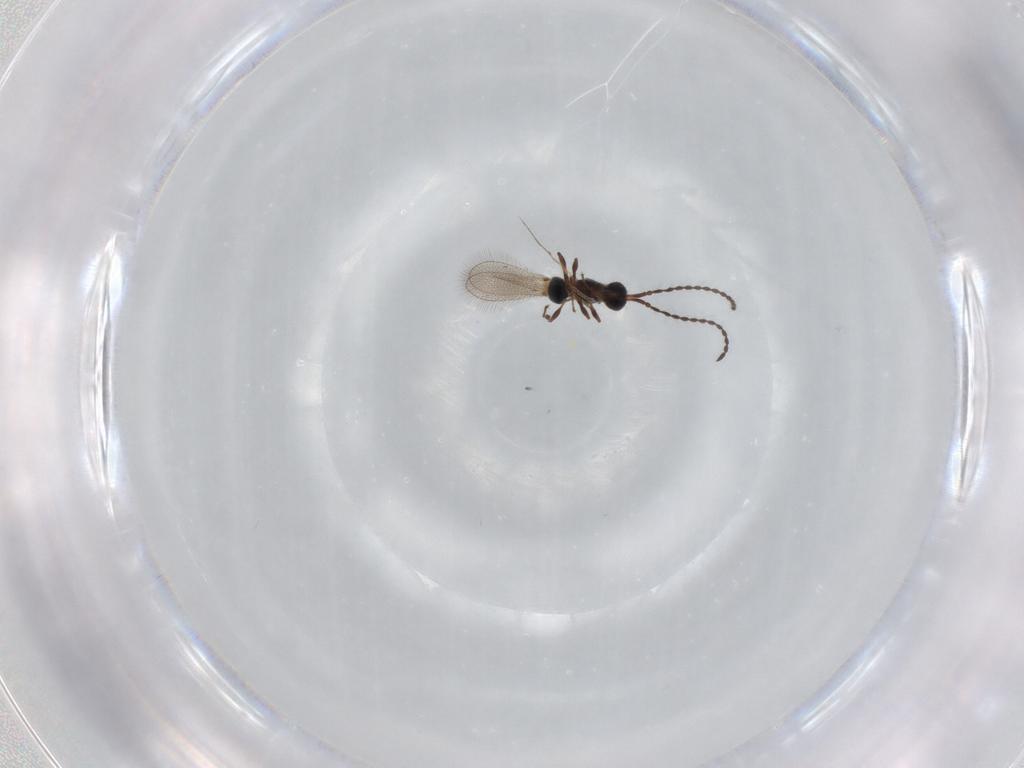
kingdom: Animalia
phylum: Arthropoda
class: Insecta
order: Hymenoptera
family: Diapriidae
